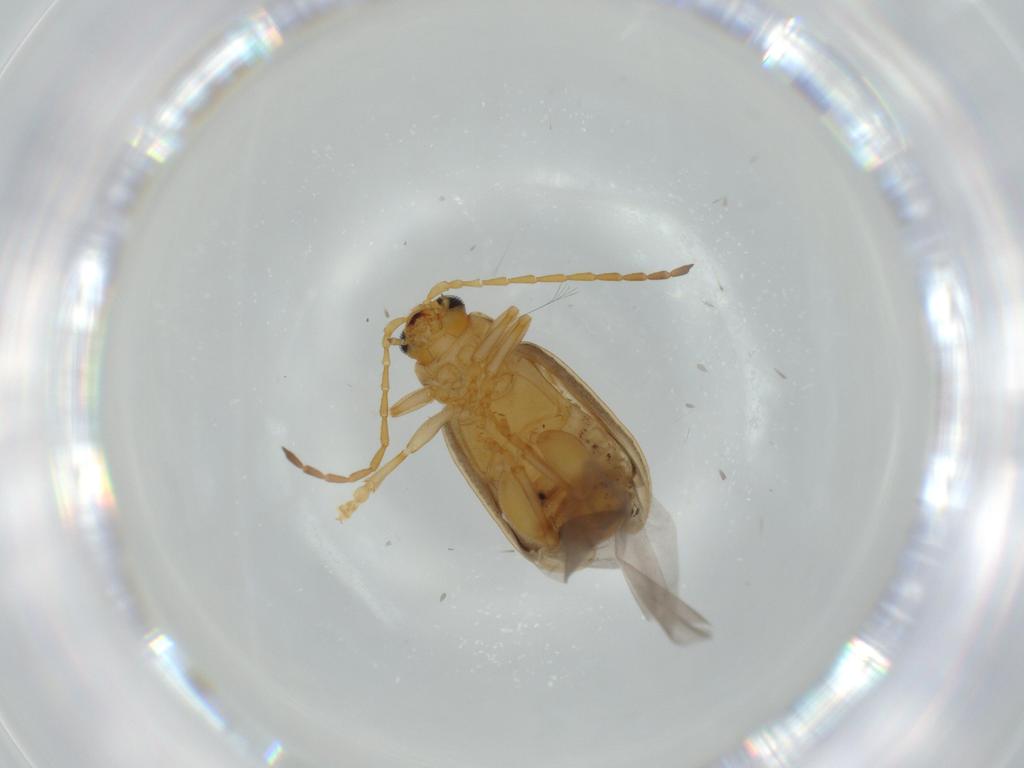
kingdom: Animalia
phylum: Arthropoda
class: Insecta
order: Coleoptera
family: Chrysomelidae
